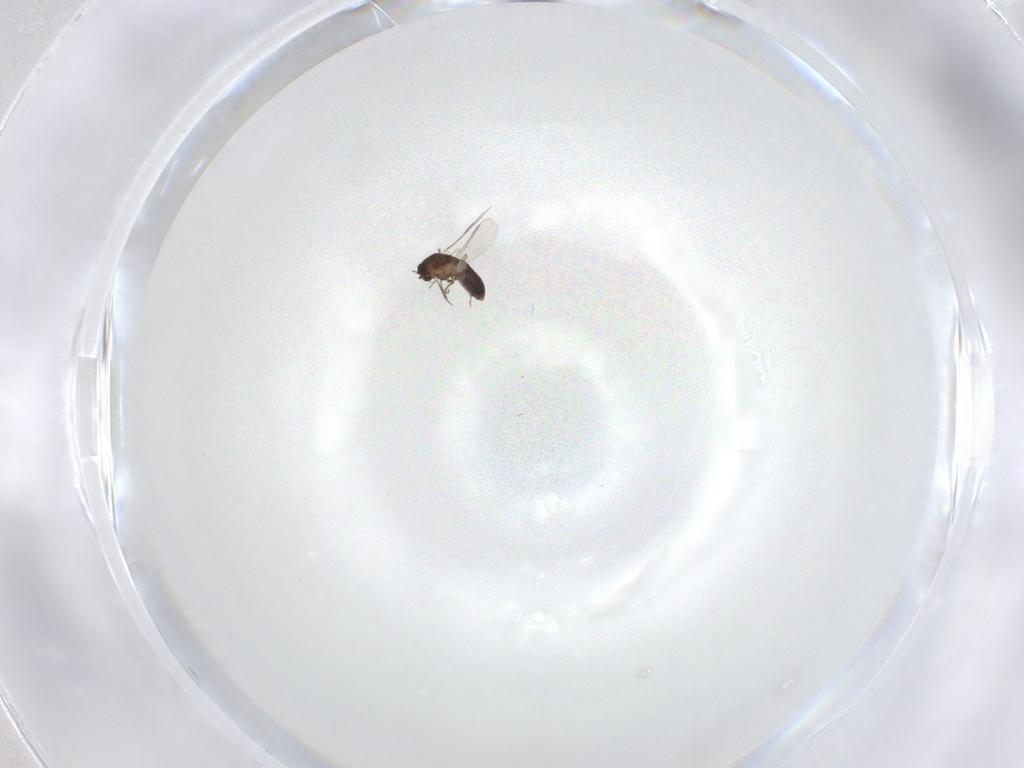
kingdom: Animalia
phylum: Arthropoda
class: Insecta
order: Diptera
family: Chironomidae
